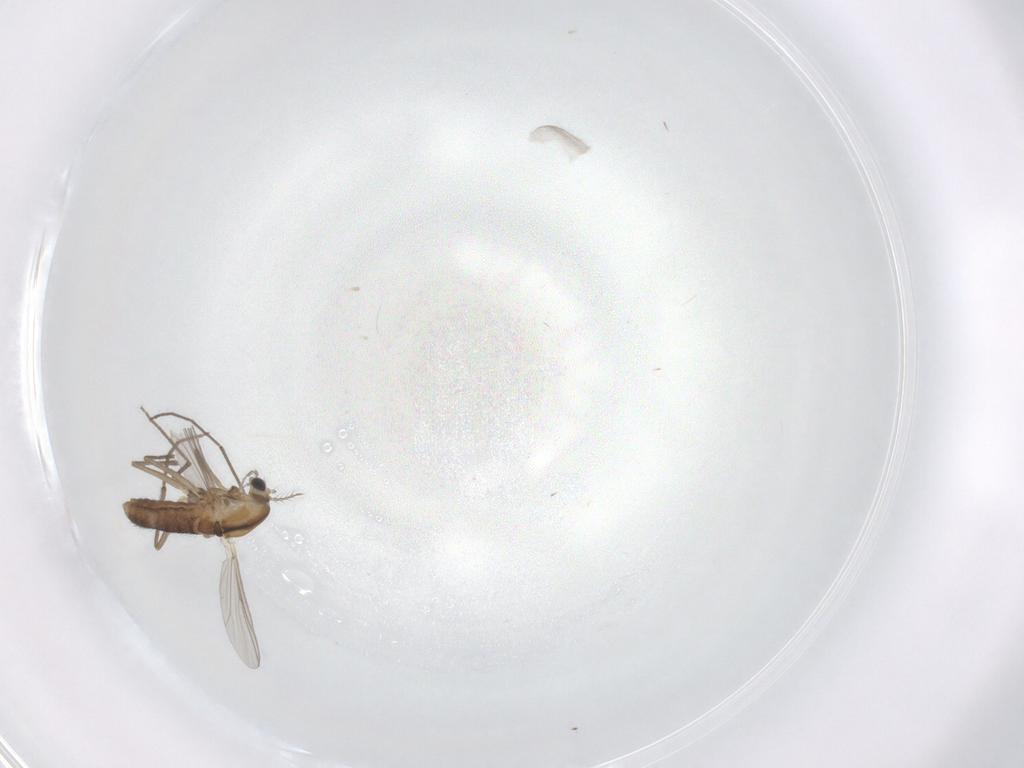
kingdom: Animalia
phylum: Arthropoda
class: Insecta
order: Diptera
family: Chironomidae
